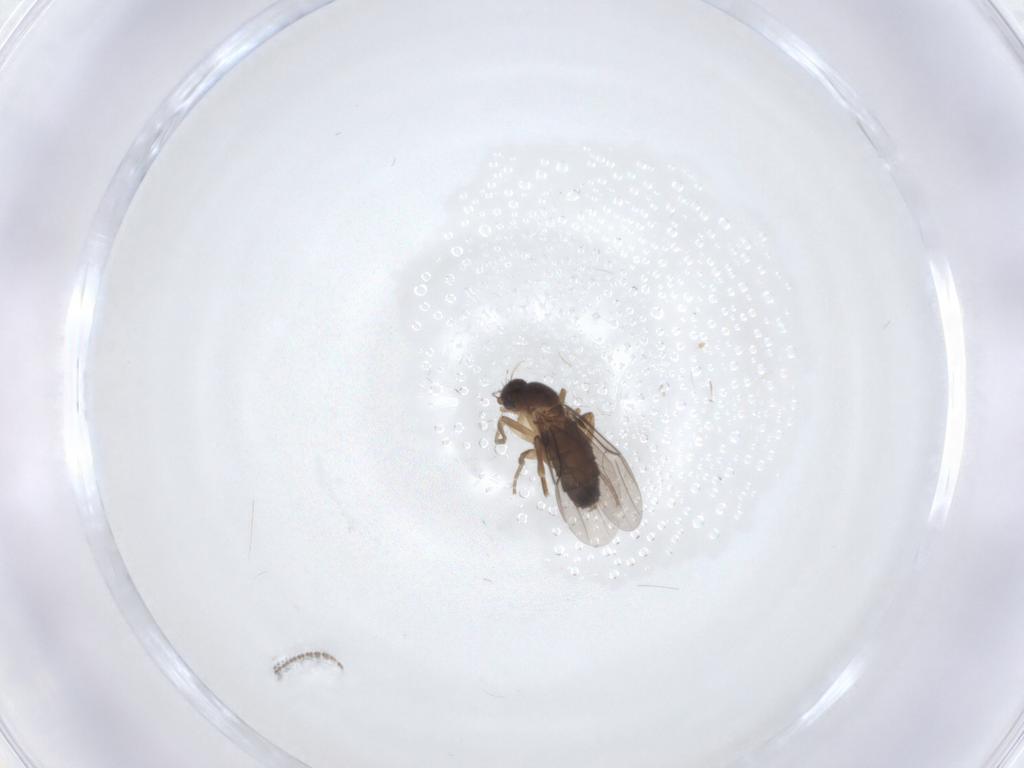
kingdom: Animalia
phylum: Arthropoda
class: Insecta
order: Diptera
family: Phoridae
